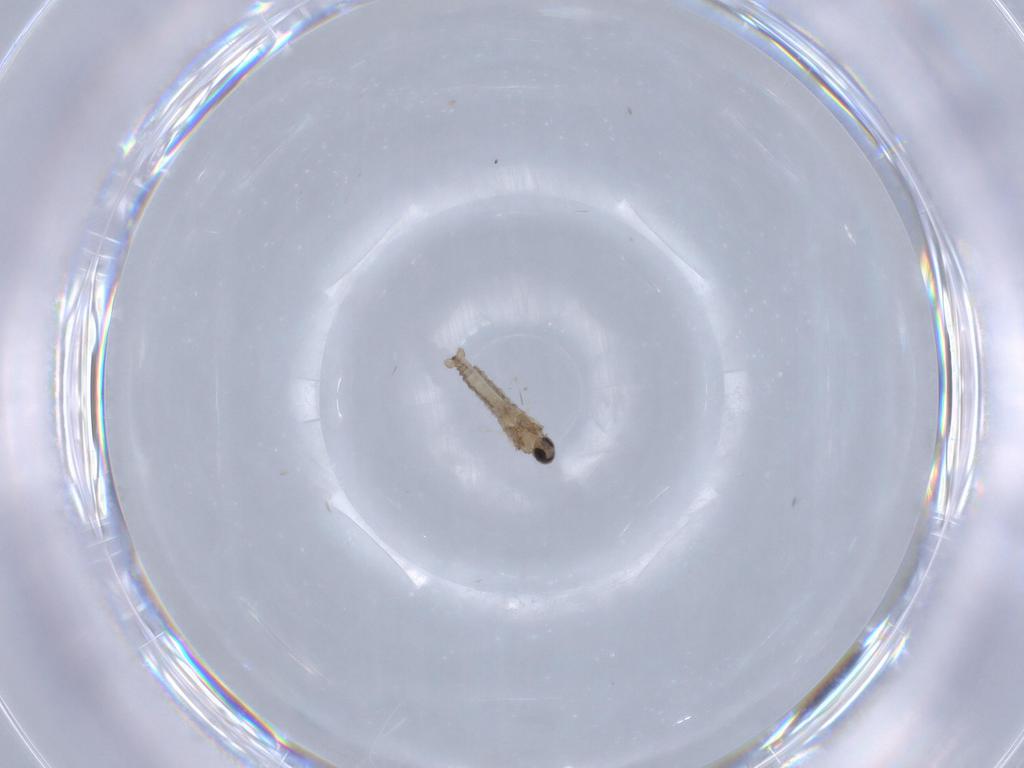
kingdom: Animalia
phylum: Arthropoda
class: Insecta
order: Diptera
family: Cecidomyiidae
